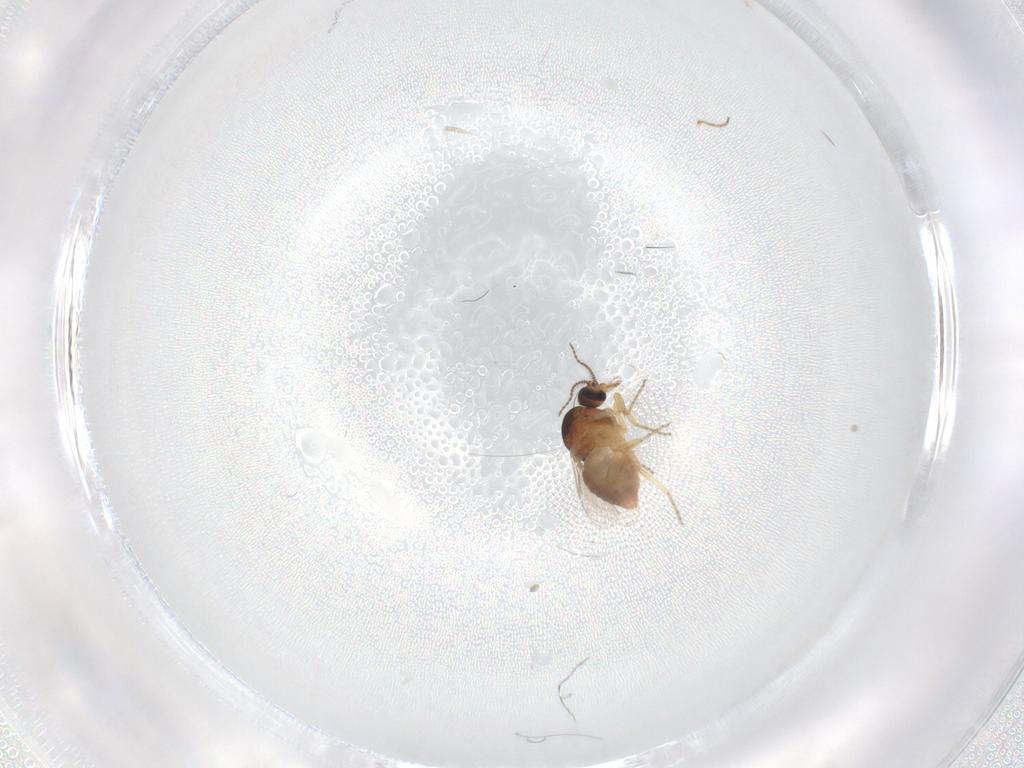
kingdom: Animalia
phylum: Arthropoda
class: Insecta
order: Diptera
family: Ceratopogonidae
